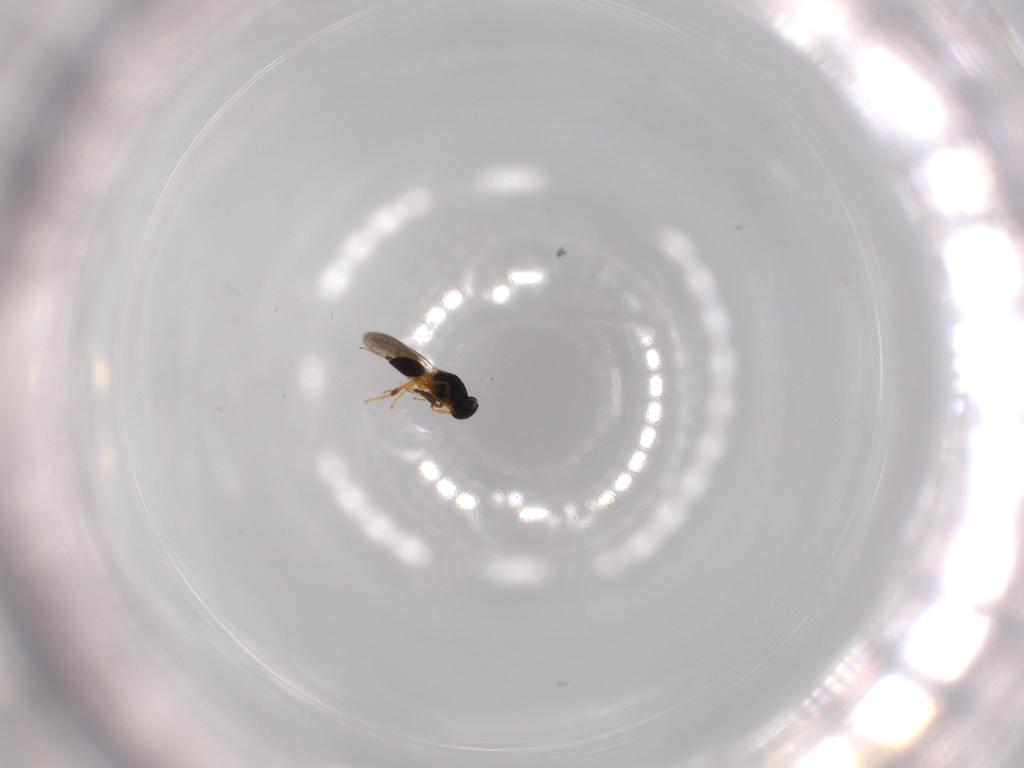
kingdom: Animalia
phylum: Arthropoda
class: Insecta
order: Hymenoptera
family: Platygastridae
